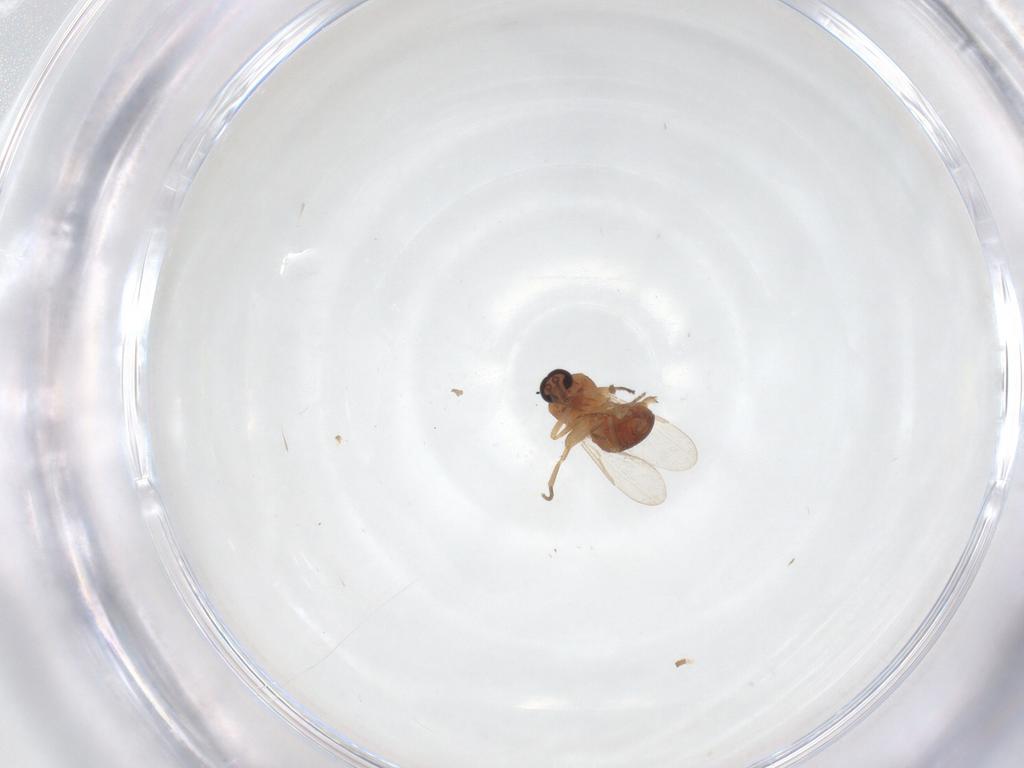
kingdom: Animalia
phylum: Arthropoda
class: Insecta
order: Diptera
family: Ceratopogonidae
